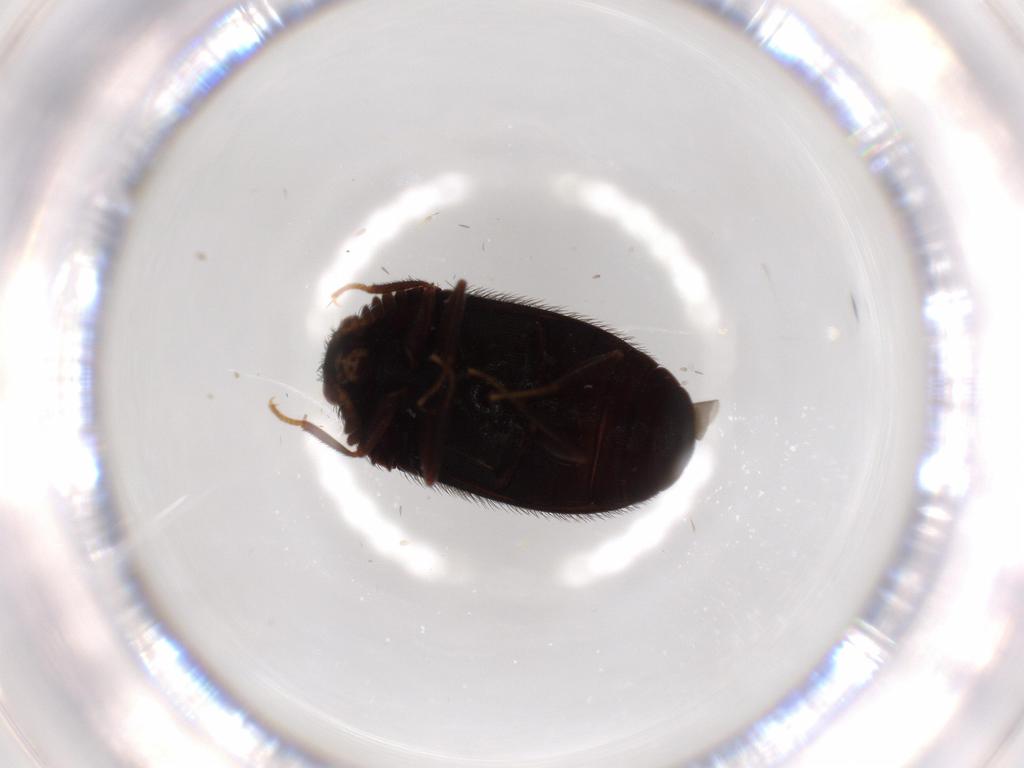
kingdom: Animalia
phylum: Arthropoda
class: Insecta
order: Coleoptera
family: Dermestidae
